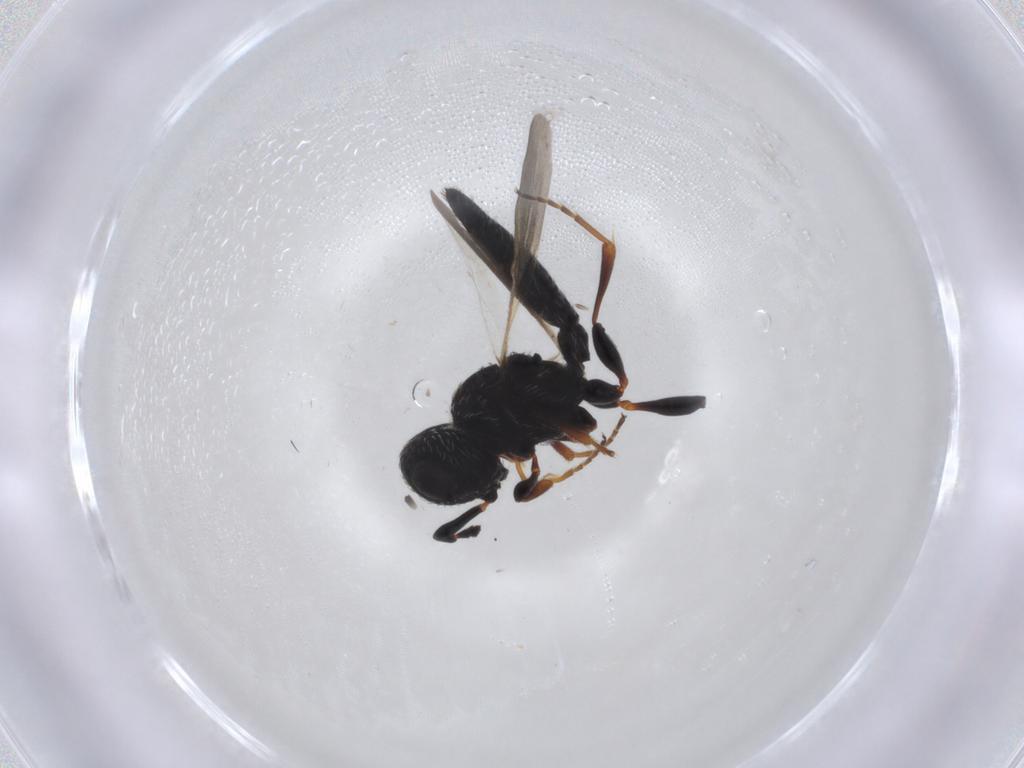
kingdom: Animalia
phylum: Arthropoda
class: Insecta
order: Hymenoptera
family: Scelionidae
